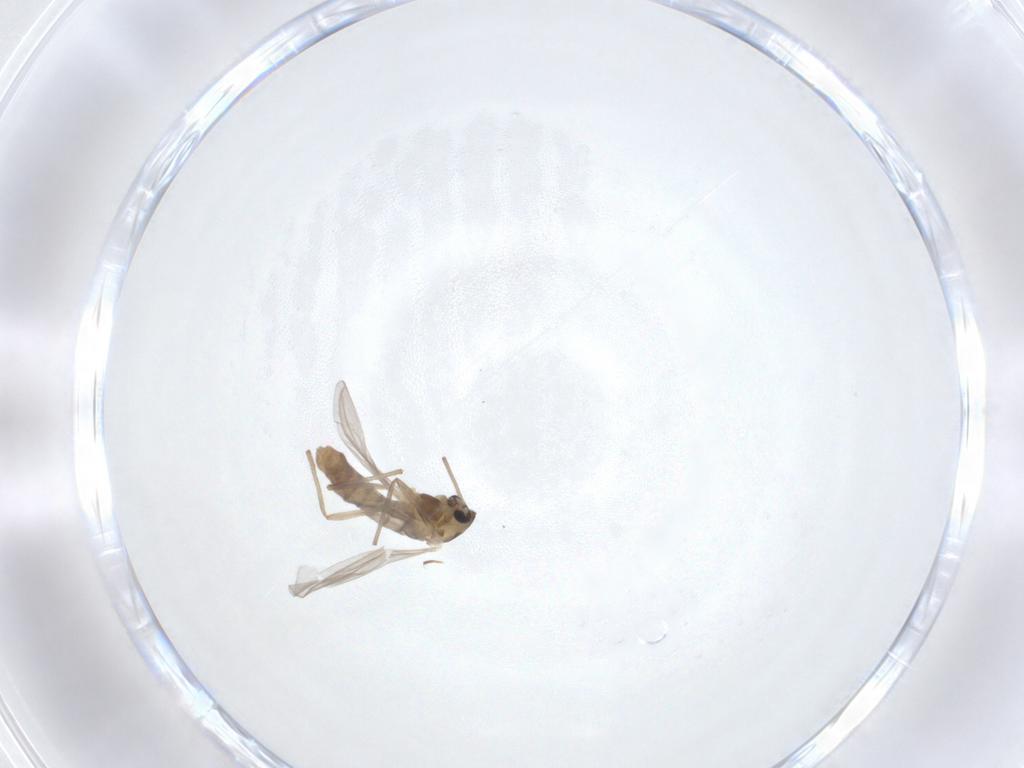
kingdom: Animalia
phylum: Arthropoda
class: Insecta
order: Diptera
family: Chironomidae
